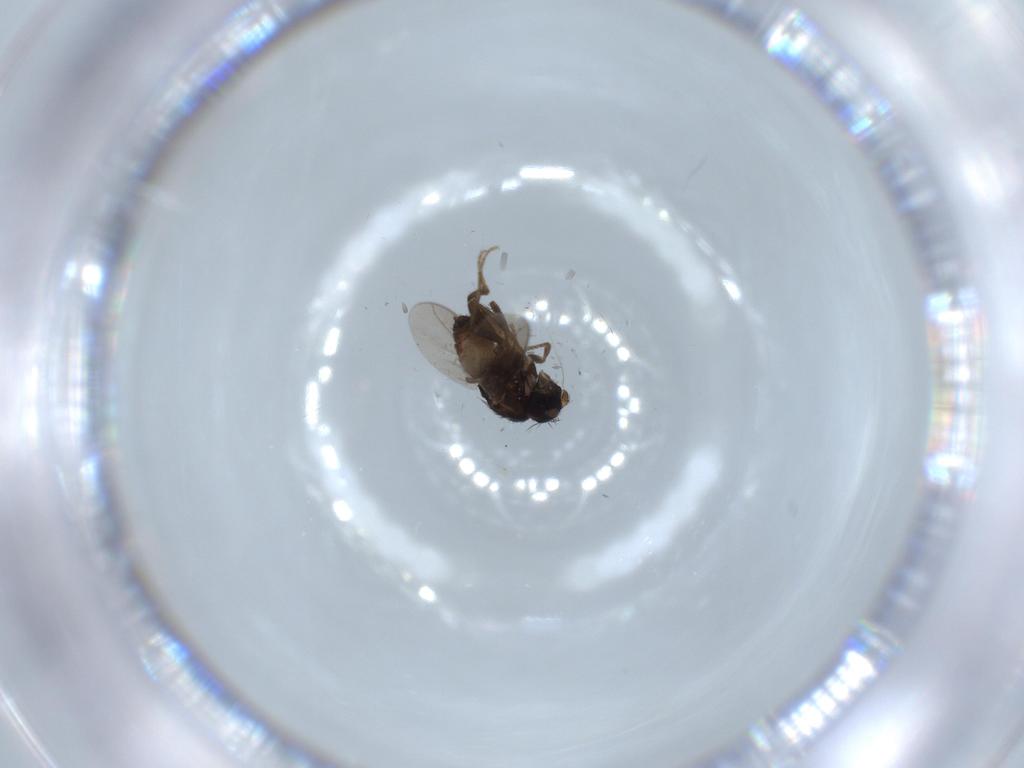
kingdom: Animalia
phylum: Arthropoda
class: Insecta
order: Diptera
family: Sphaeroceridae
